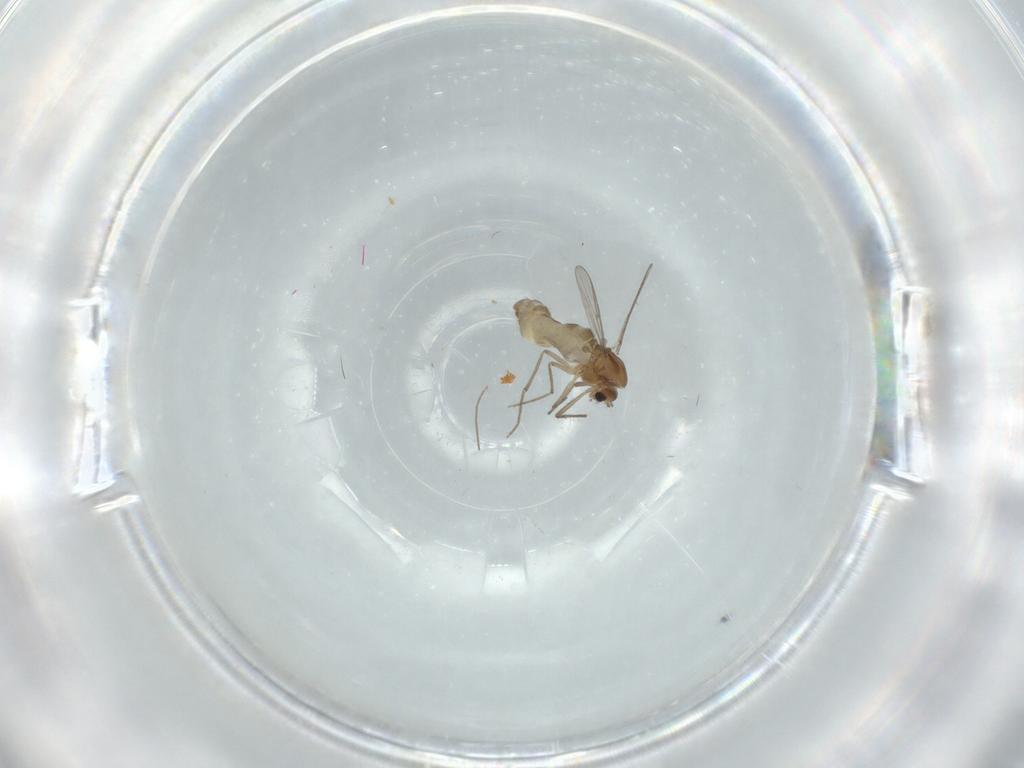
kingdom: Animalia
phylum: Arthropoda
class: Insecta
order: Diptera
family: Chironomidae
